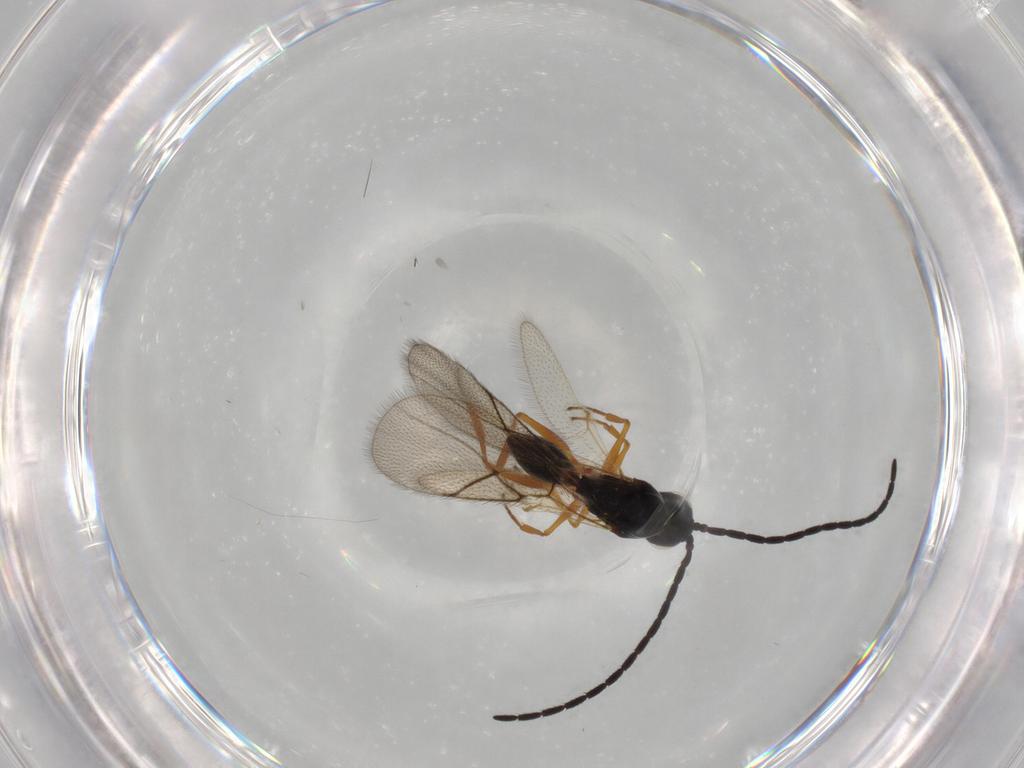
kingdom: Animalia
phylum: Arthropoda
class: Insecta
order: Hymenoptera
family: Figitidae
